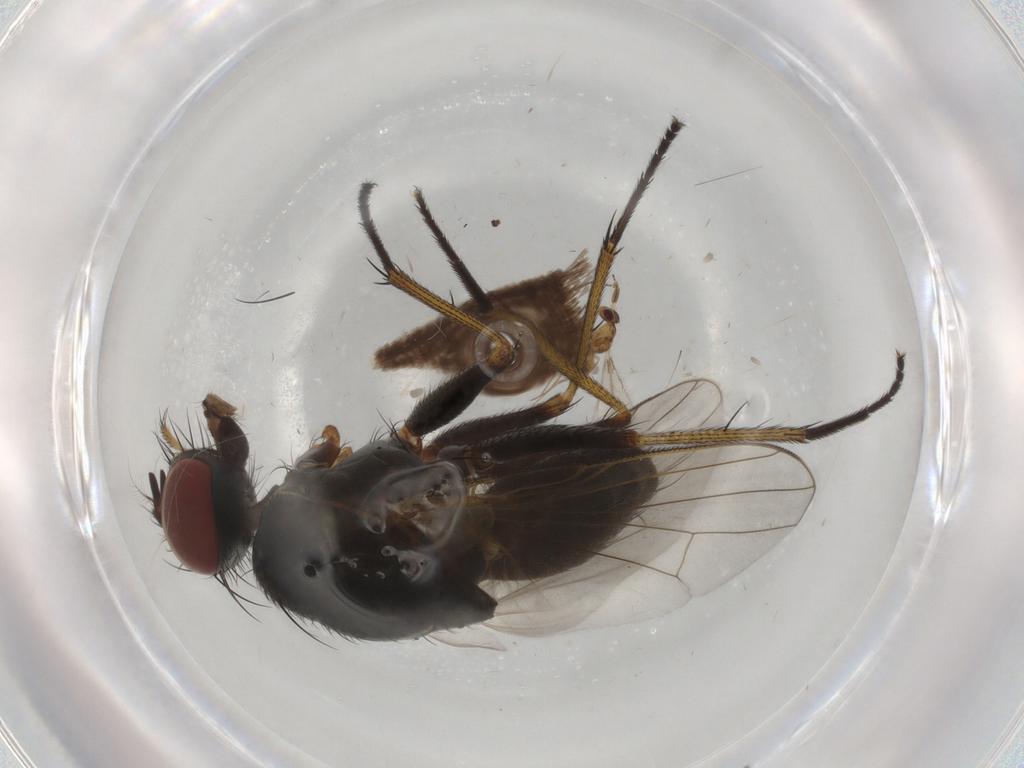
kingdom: Animalia
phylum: Arthropoda
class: Insecta
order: Diptera
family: Muscidae
